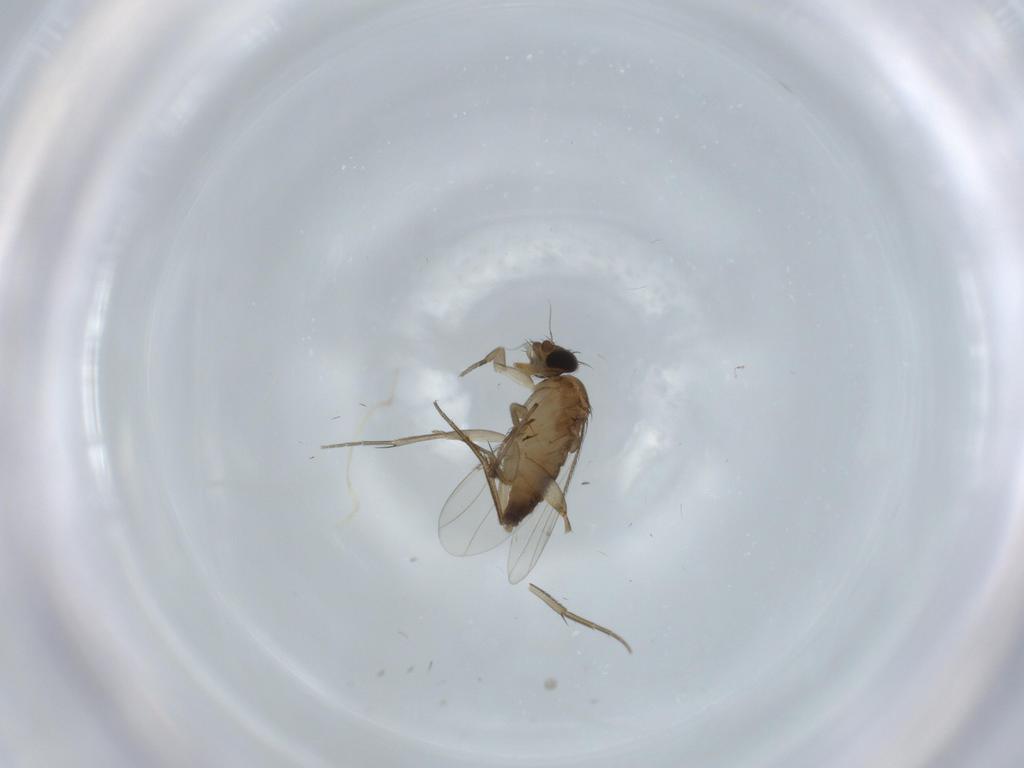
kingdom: Animalia
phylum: Arthropoda
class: Insecta
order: Diptera
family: Phoridae
